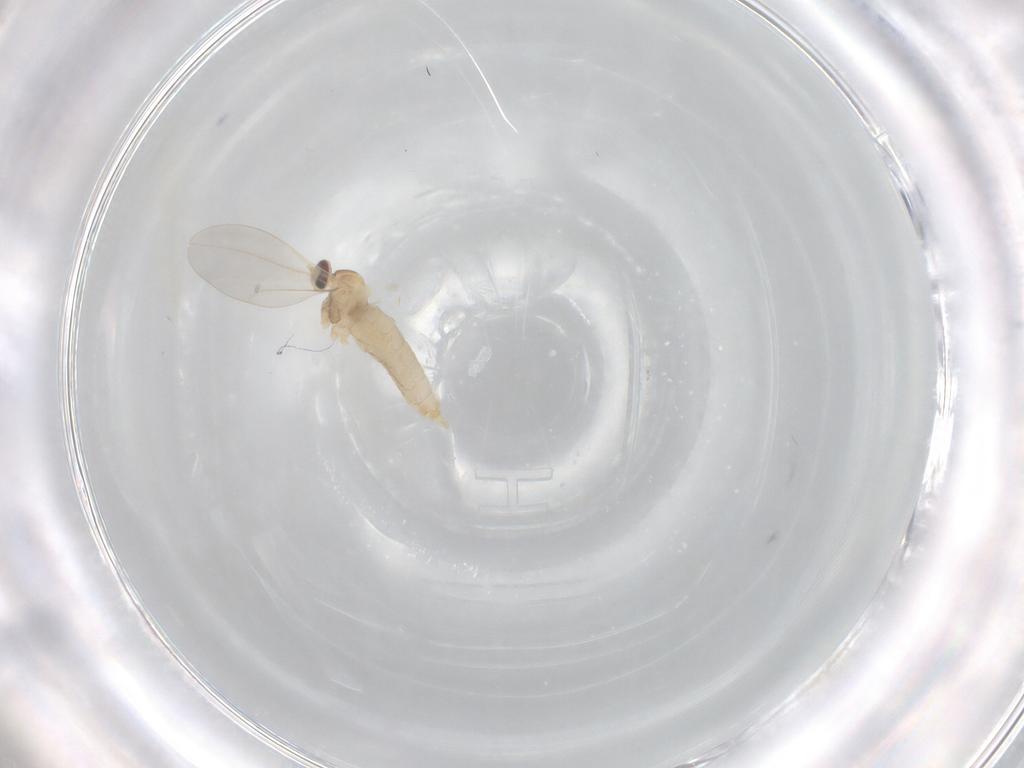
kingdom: Animalia
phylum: Arthropoda
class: Insecta
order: Diptera
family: Cecidomyiidae
